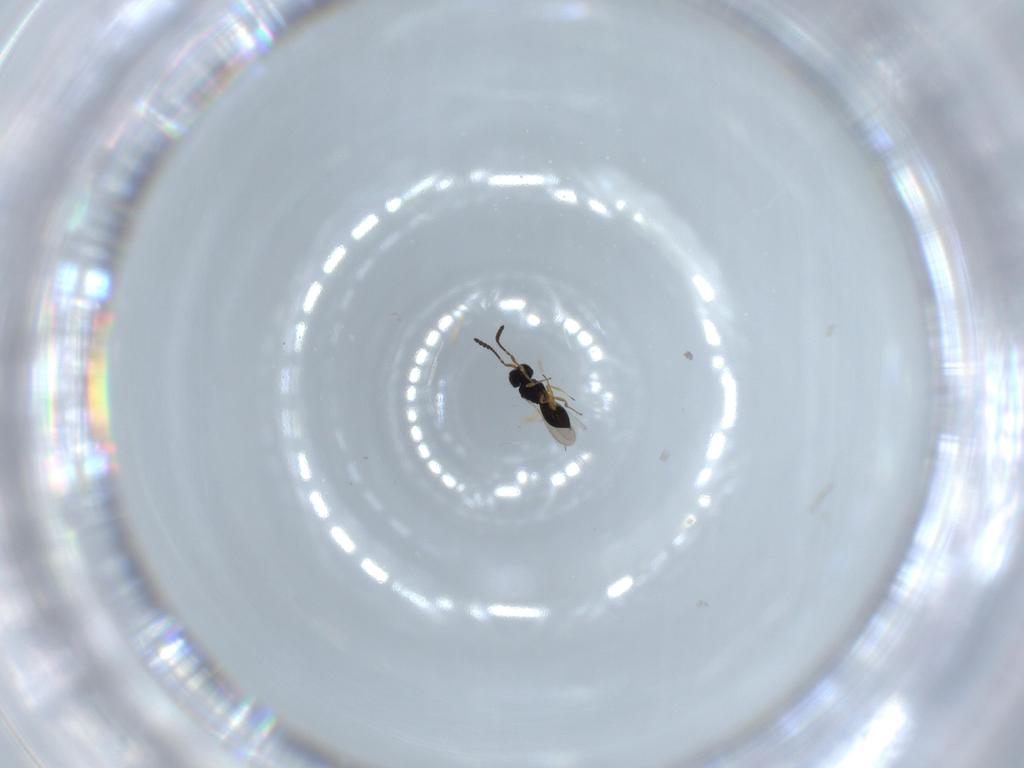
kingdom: Animalia
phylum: Arthropoda
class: Insecta
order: Hymenoptera
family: Scelionidae
